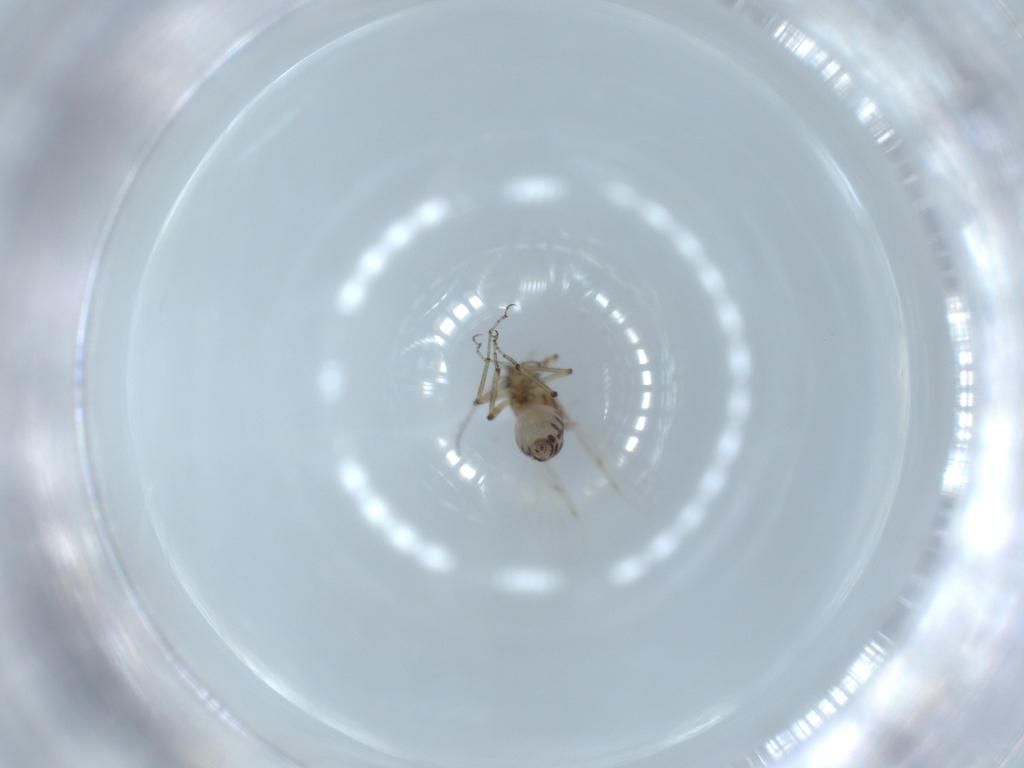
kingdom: Animalia
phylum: Arthropoda
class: Insecta
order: Diptera
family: Ceratopogonidae
